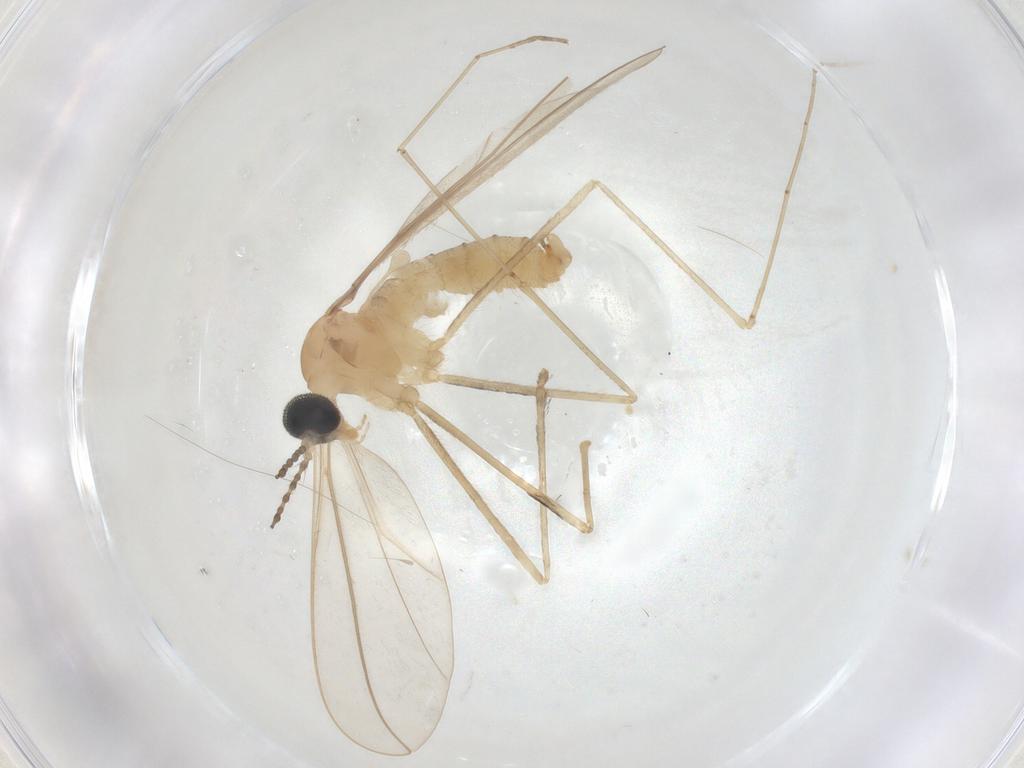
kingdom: Animalia
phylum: Arthropoda
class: Insecta
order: Diptera
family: Cecidomyiidae
